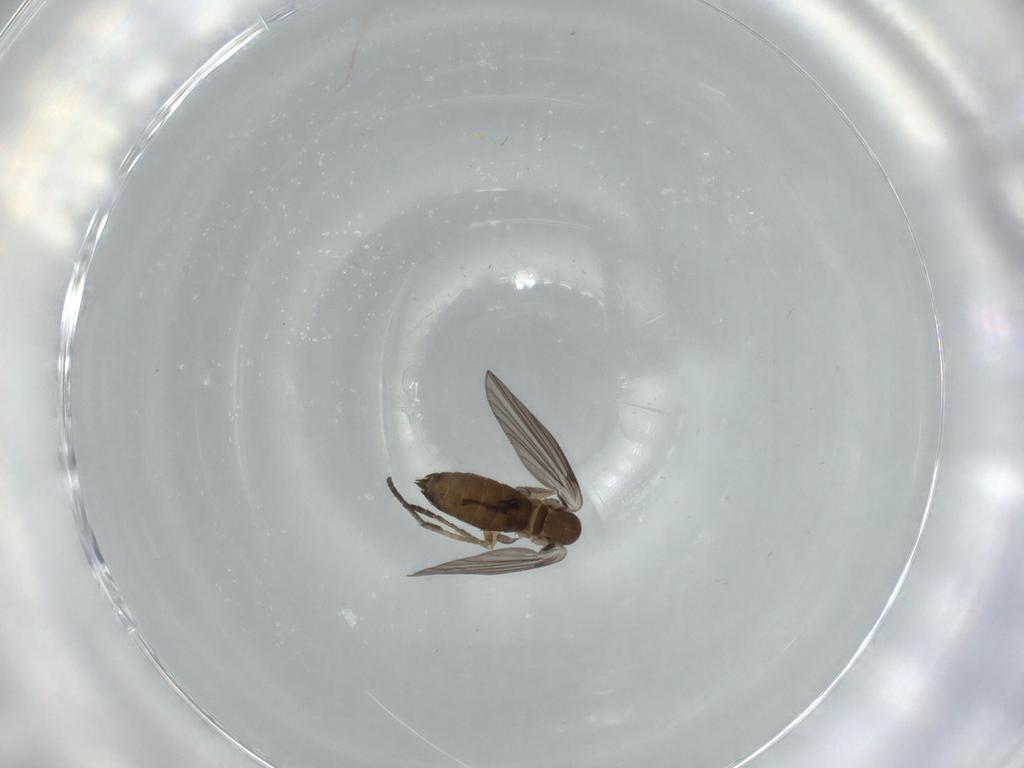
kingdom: Animalia
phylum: Arthropoda
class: Insecta
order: Diptera
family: Psychodidae
